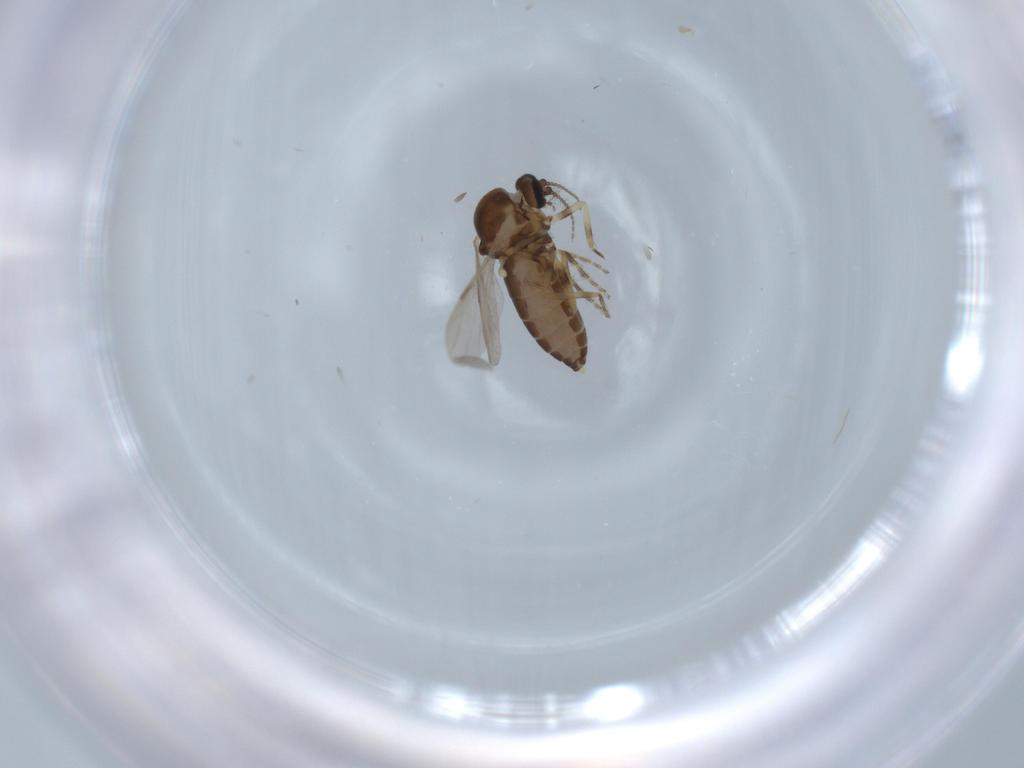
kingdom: Animalia
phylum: Arthropoda
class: Insecta
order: Diptera
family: Ceratopogonidae
